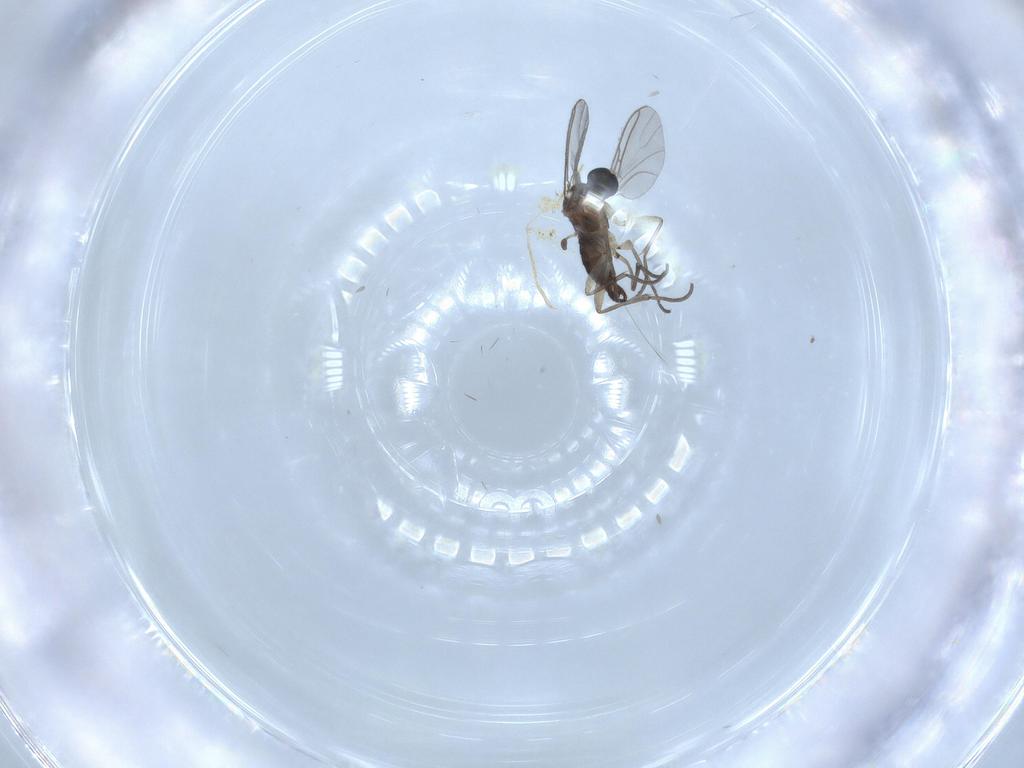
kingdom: Animalia
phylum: Arthropoda
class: Insecta
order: Diptera
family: Sciaridae
